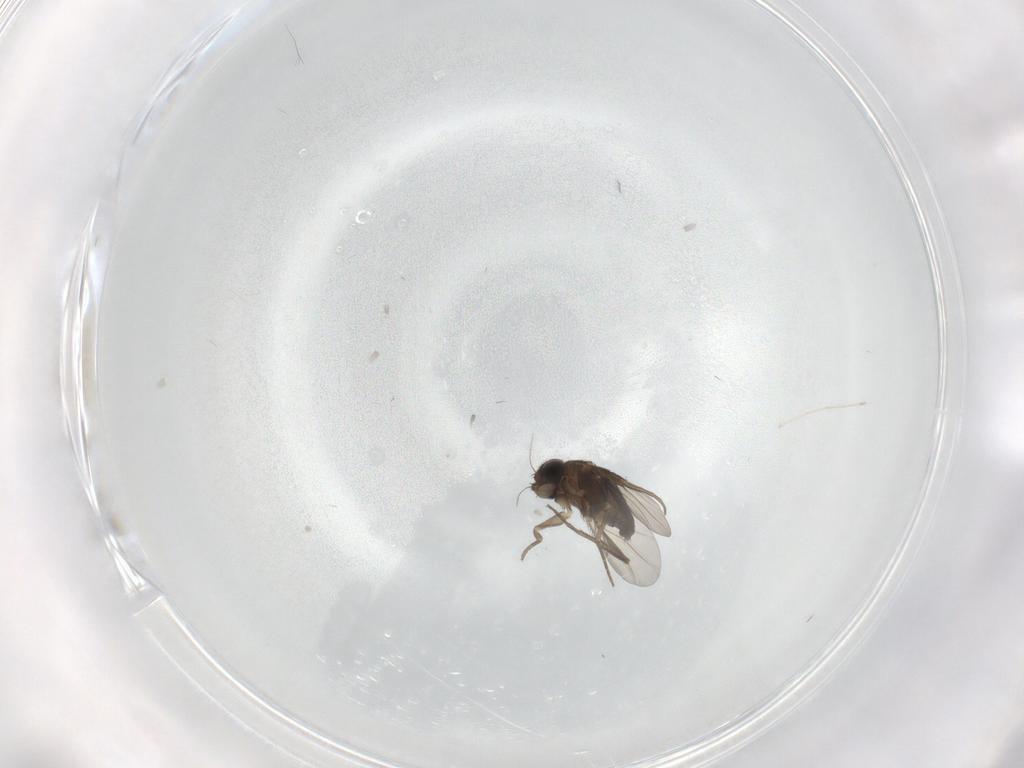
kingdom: Animalia
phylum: Arthropoda
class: Insecta
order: Diptera
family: Phoridae
